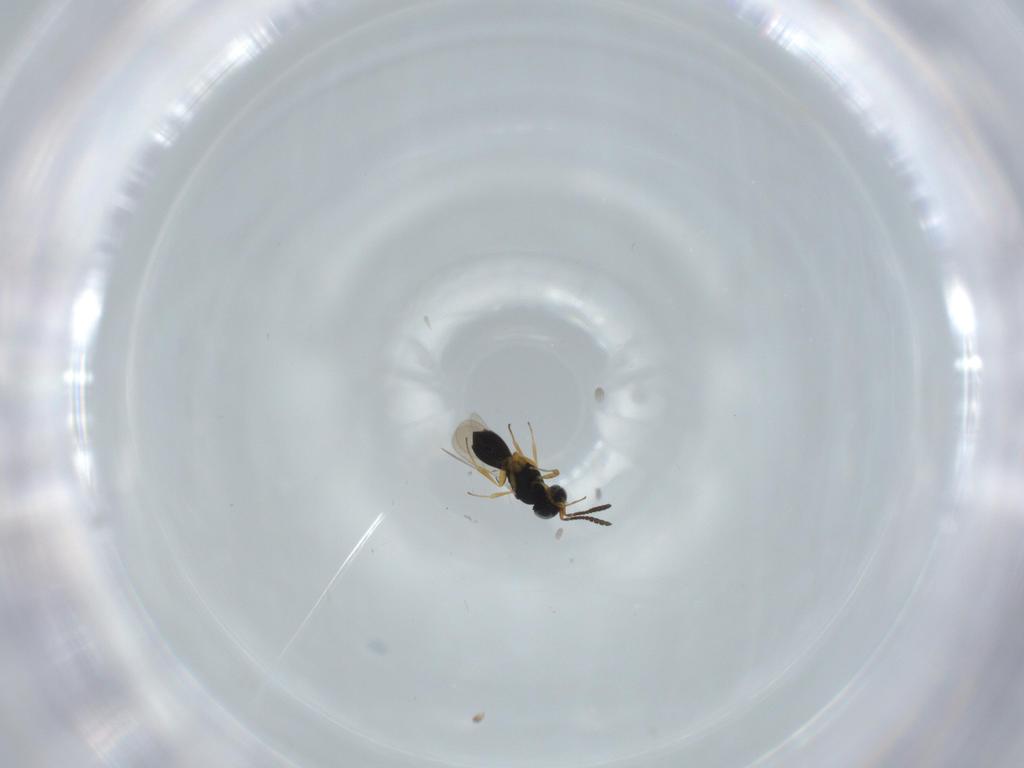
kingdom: Animalia
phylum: Arthropoda
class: Insecta
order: Hymenoptera
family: Scelionidae
